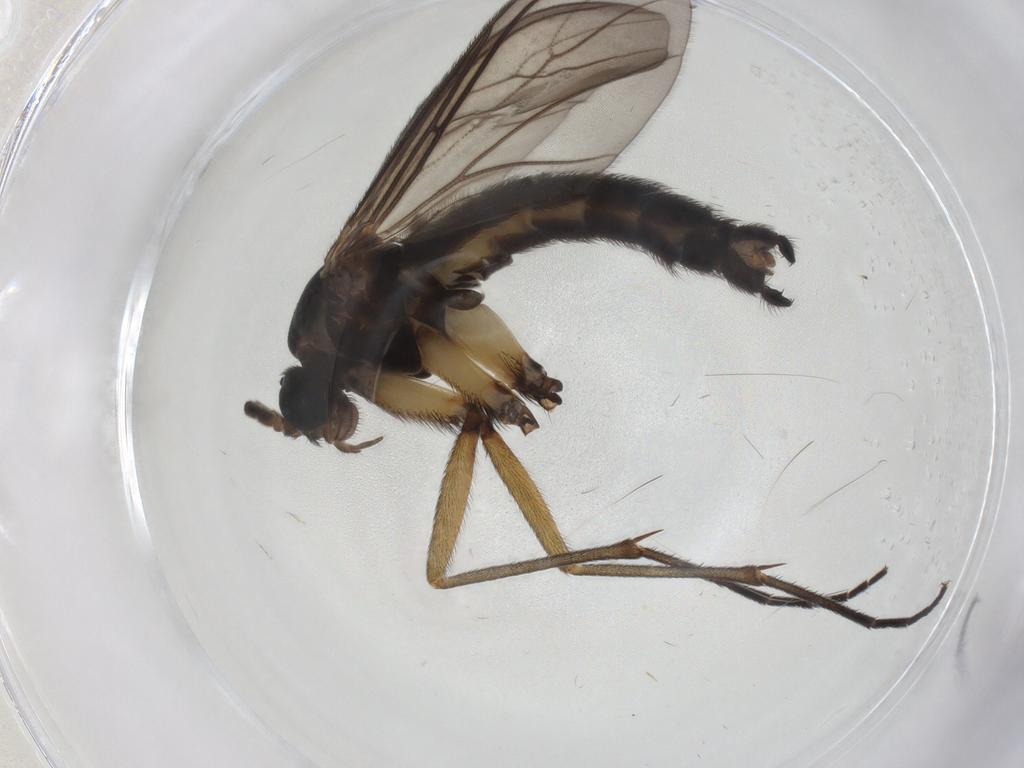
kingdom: Animalia
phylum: Arthropoda
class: Insecta
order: Diptera
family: Sciaridae
